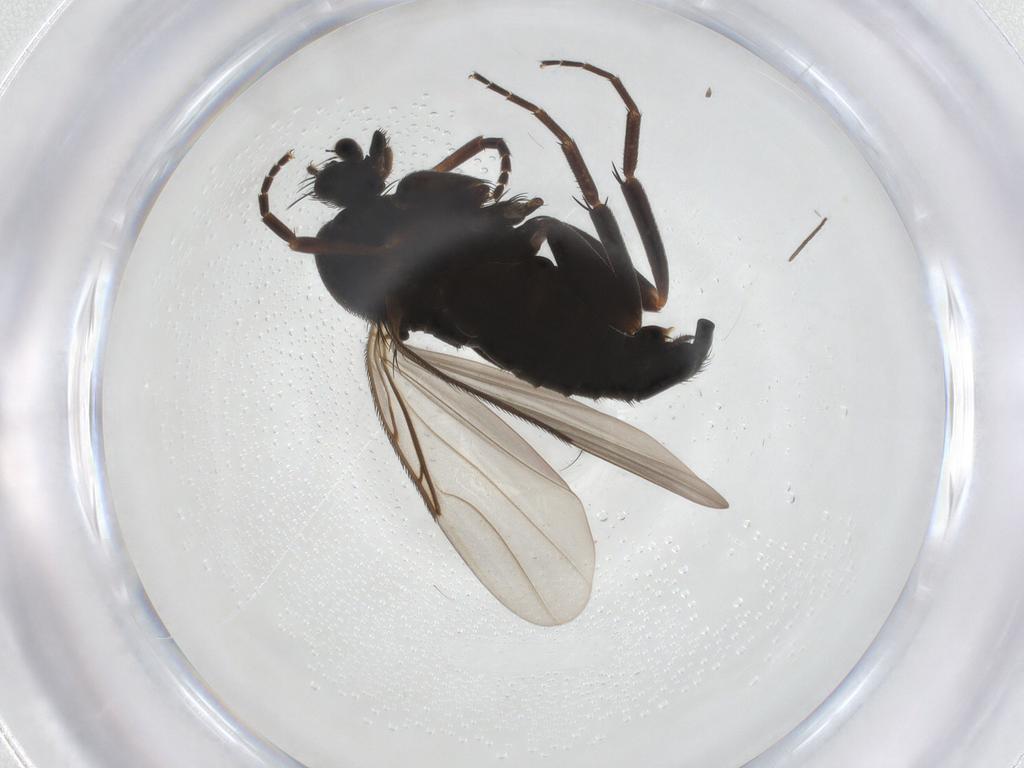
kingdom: Animalia
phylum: Arthropoda
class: Insecta
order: Diptera
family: Phoridae
